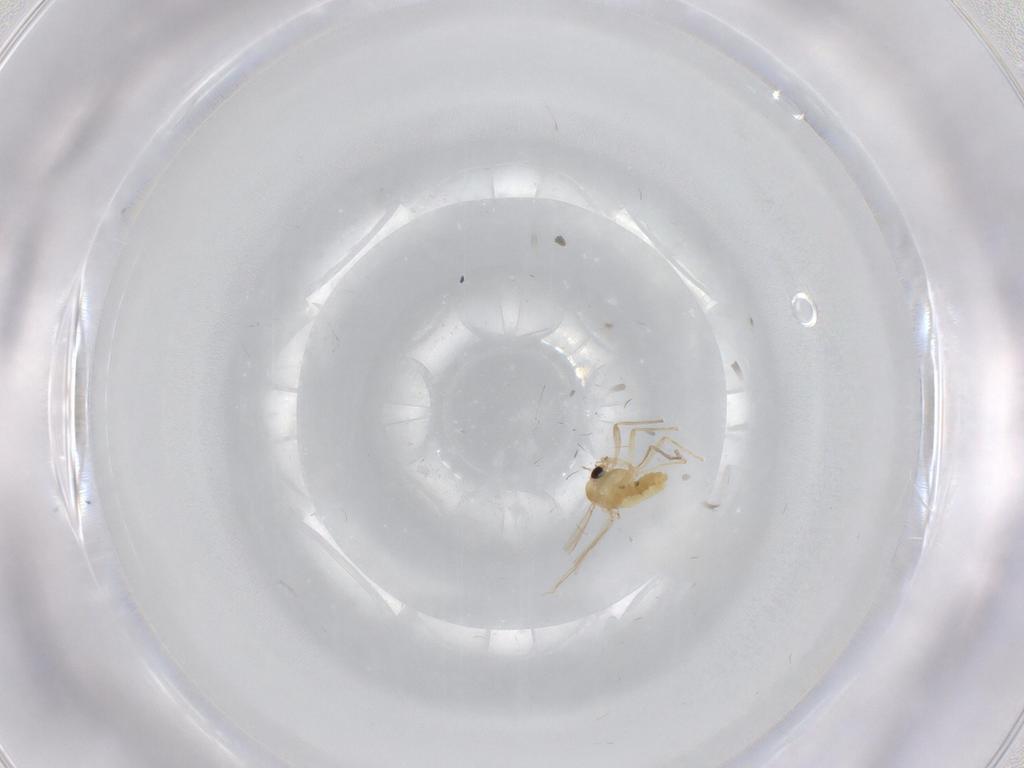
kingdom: Animalia
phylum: Arthropoda
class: Insecta
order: Diptera
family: Chironomidae
